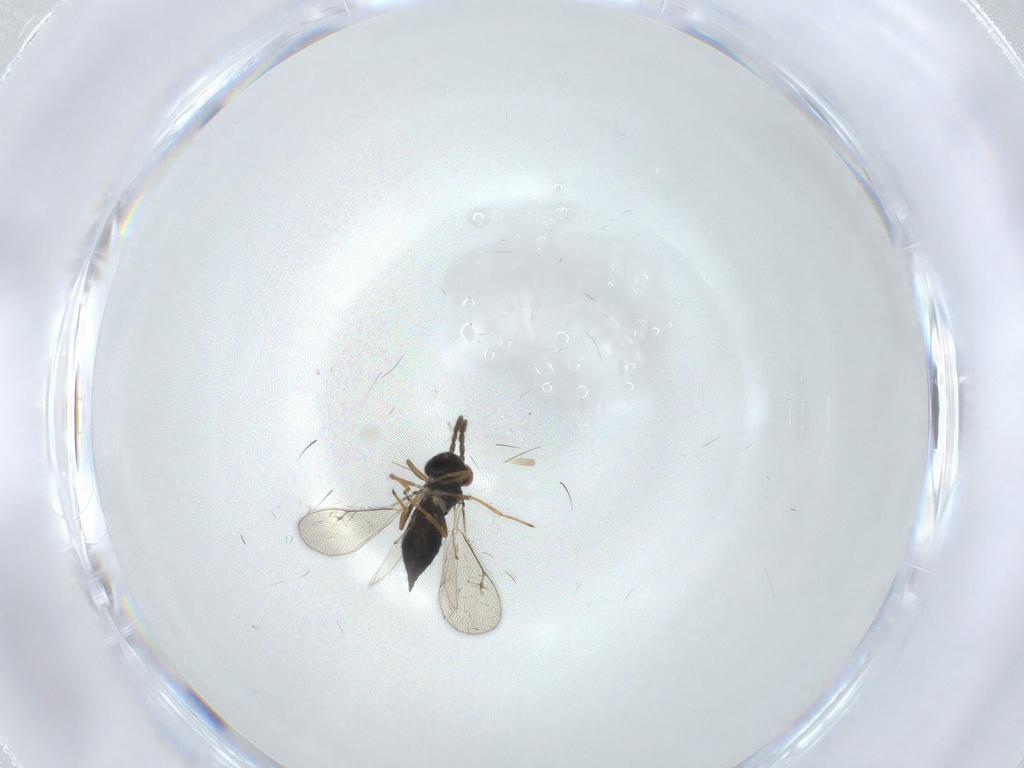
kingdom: Animalia
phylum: Arthropoda
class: Insecta
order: Hymenoptera
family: Eulophidae
